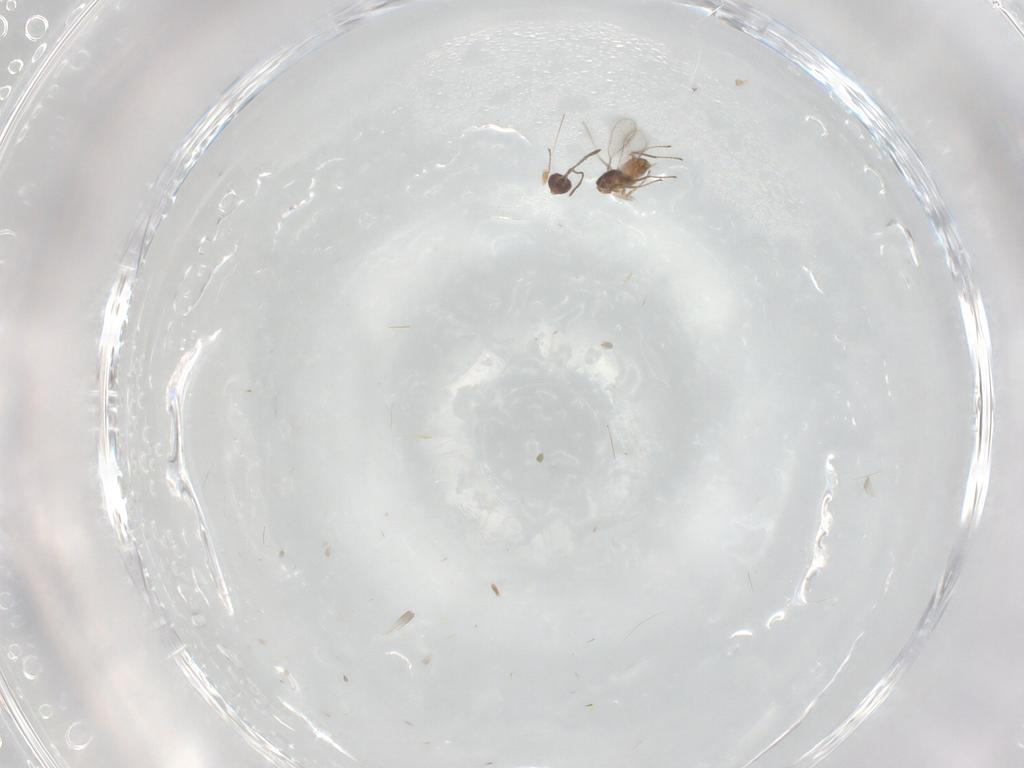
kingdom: Animalia
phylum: Arthropoda
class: Insecta
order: Hymenoptera
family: Mymaridae
